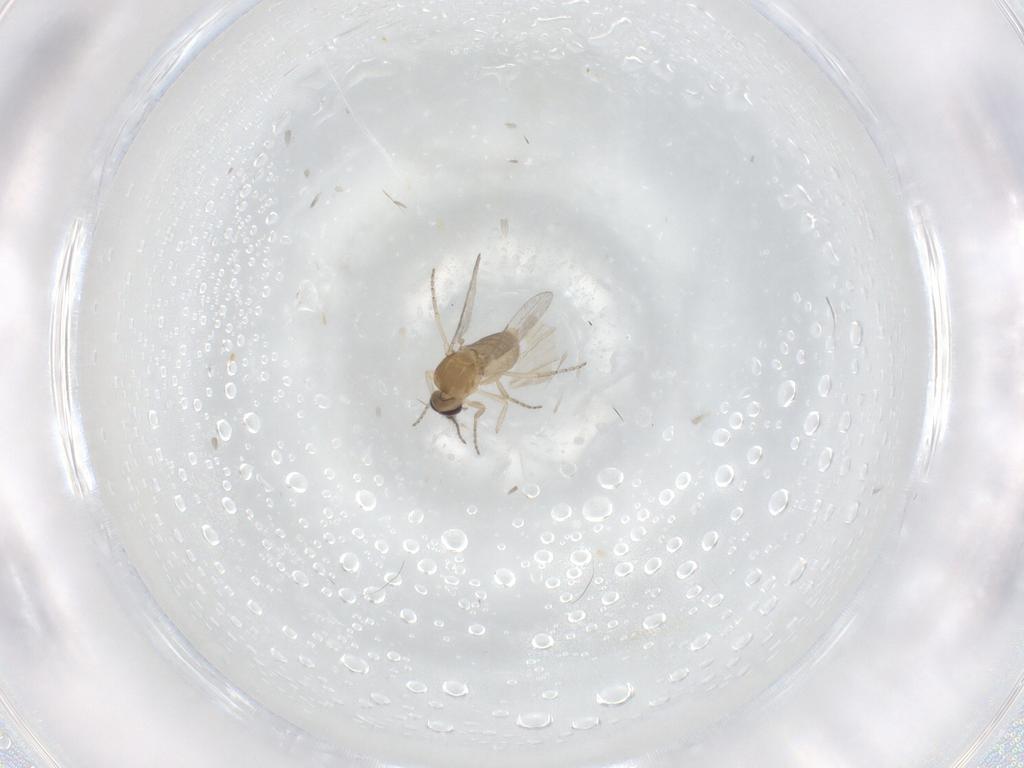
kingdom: Animalia
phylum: Arthropoda
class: Insecta
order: Diptera
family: Ceratopogonidae
